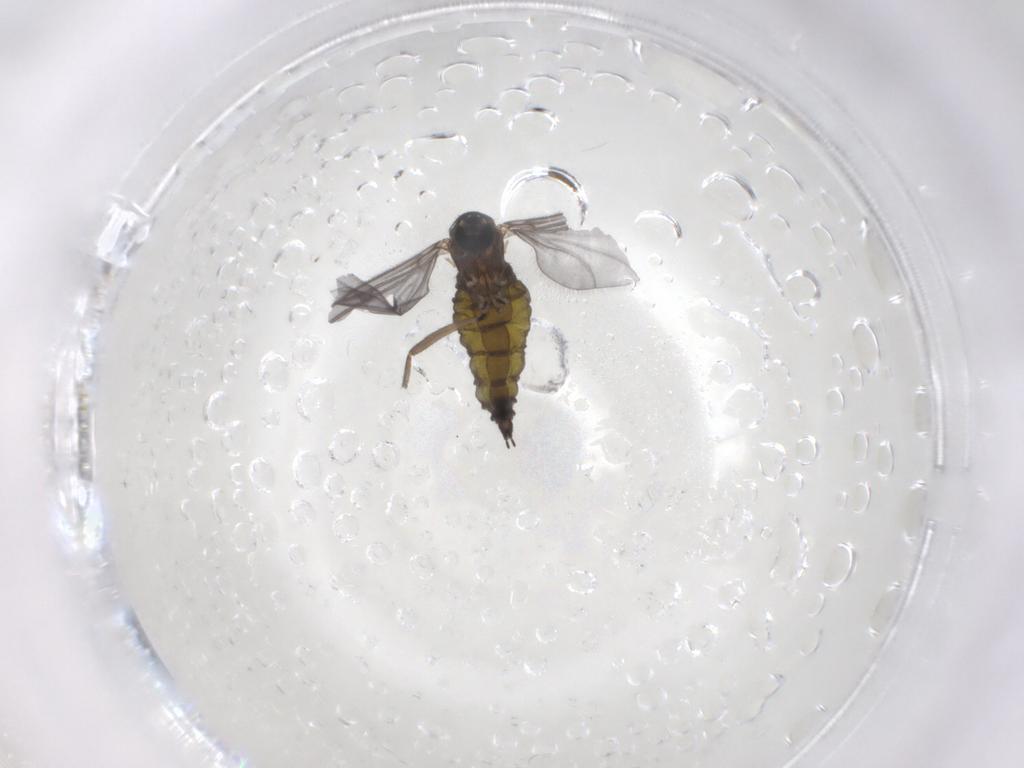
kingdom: Animalia
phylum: Arthropoda
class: Insecta
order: Diptera
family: Sciaridae
